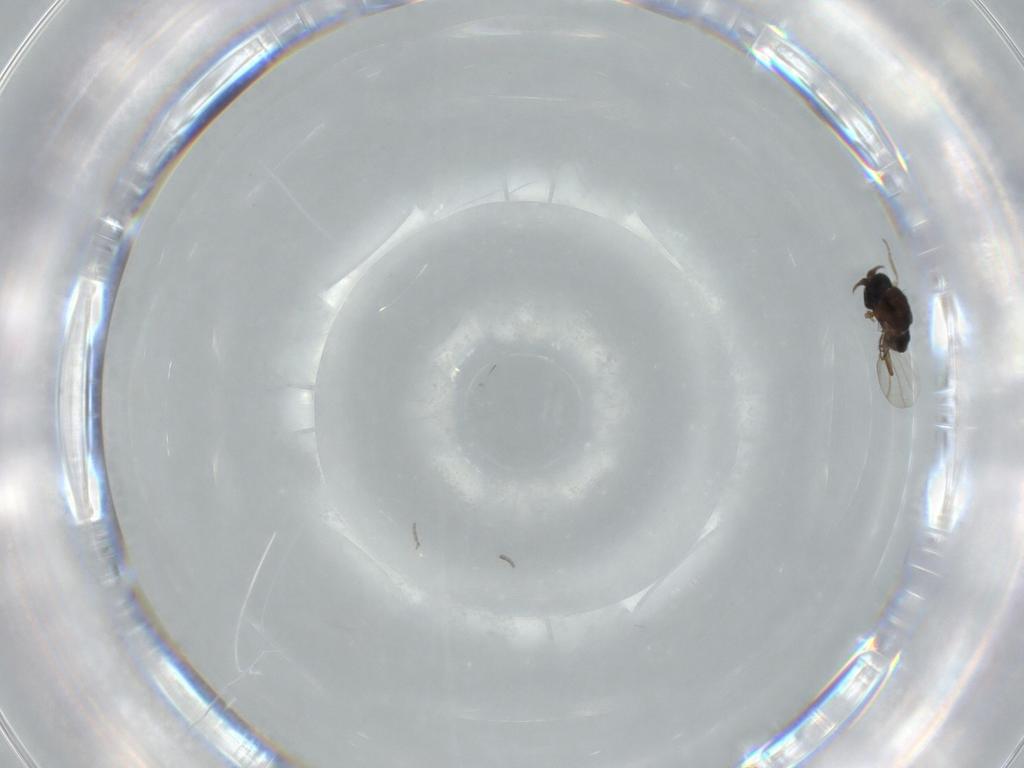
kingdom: Animalia
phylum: Arthropoda
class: Insecta
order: Diptera
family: Phoridae
